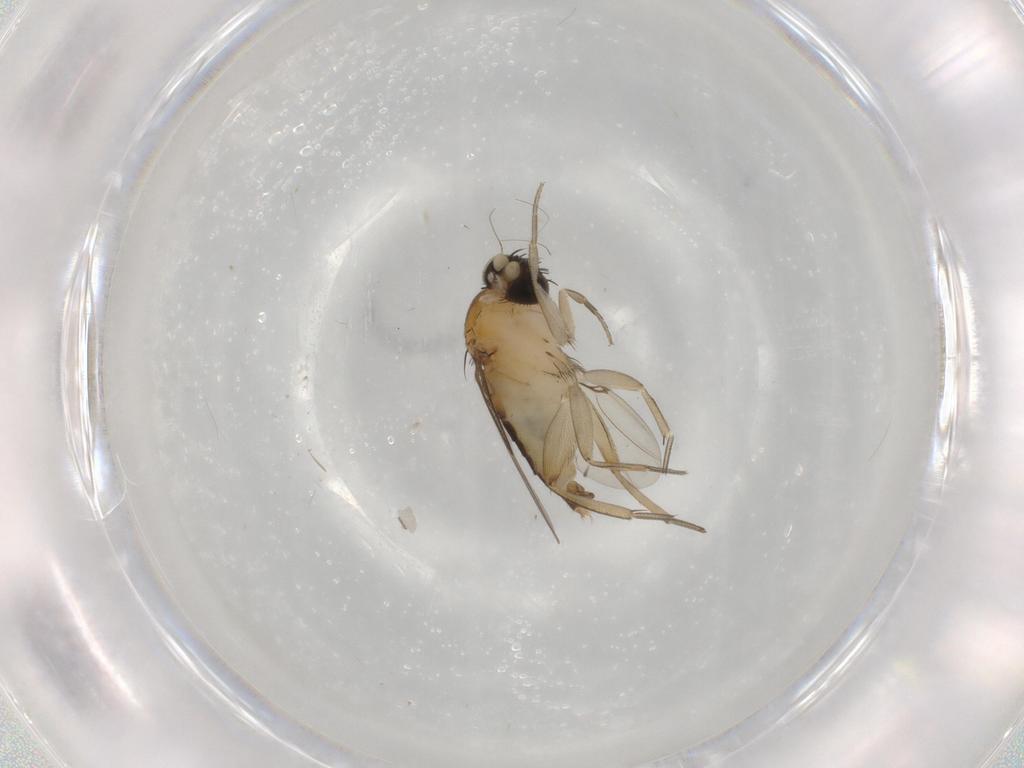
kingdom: Animalia
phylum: Arthropoda
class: Insecta
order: Diptera
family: Phoridae
